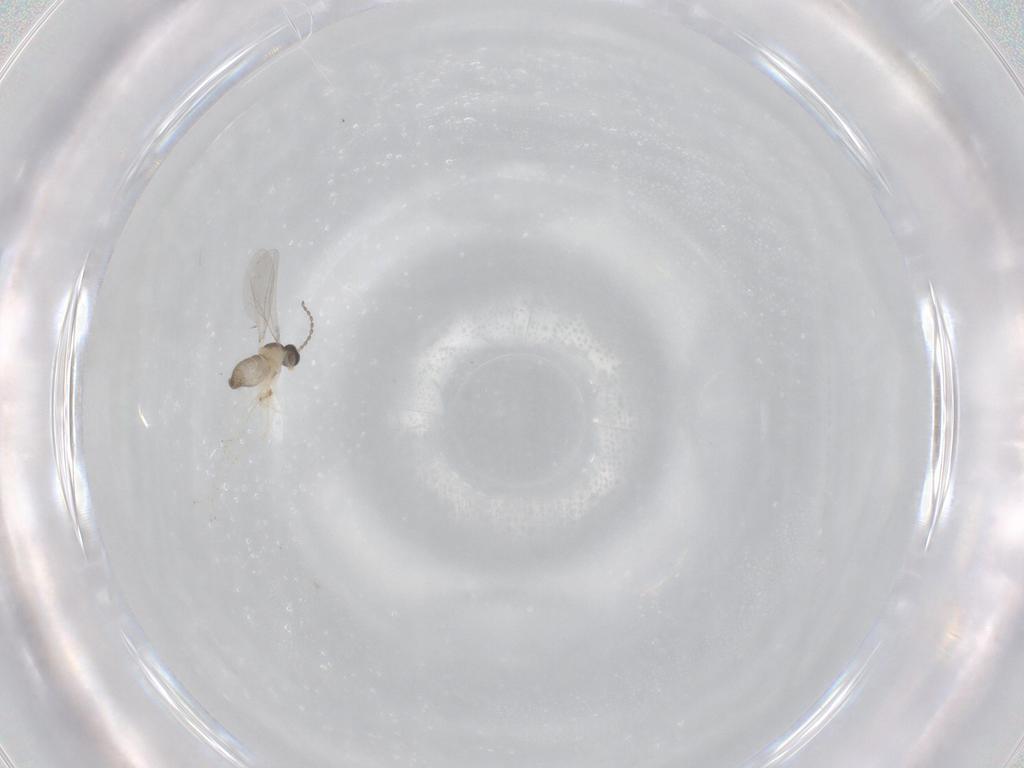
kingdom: Animalia
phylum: Arthropoda
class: Insecta
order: Diptera
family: Cecidomyiidae
